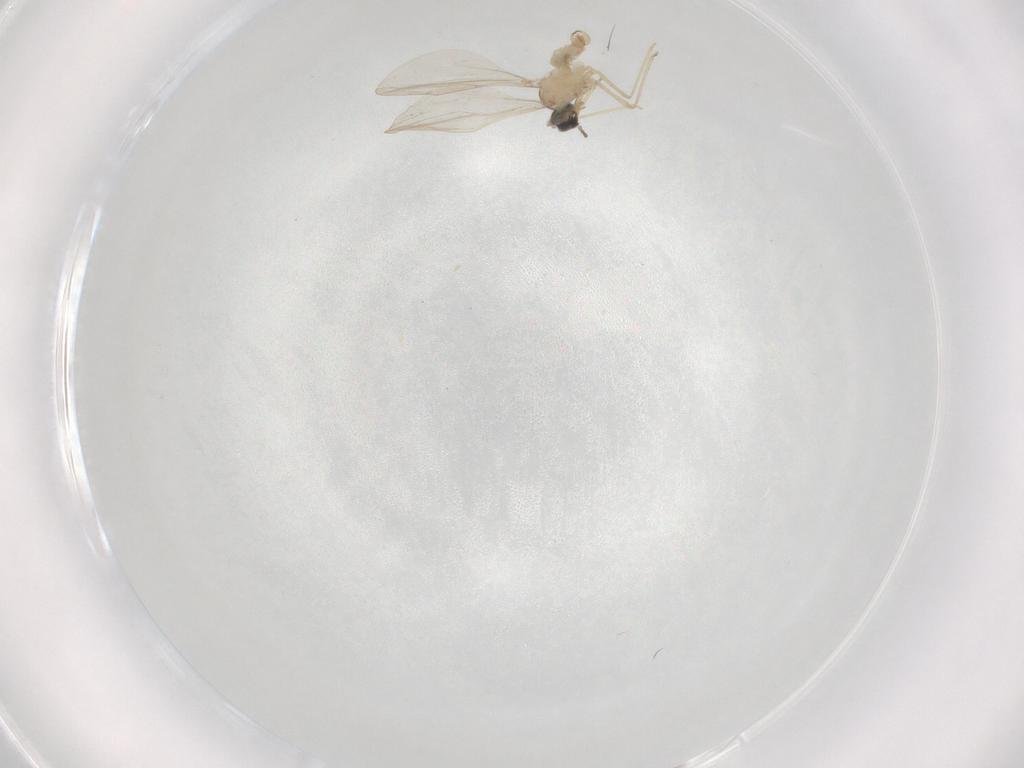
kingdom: Animalia
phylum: Arthropoda
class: Insecta
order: Diptera
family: Cecidomyiidae
